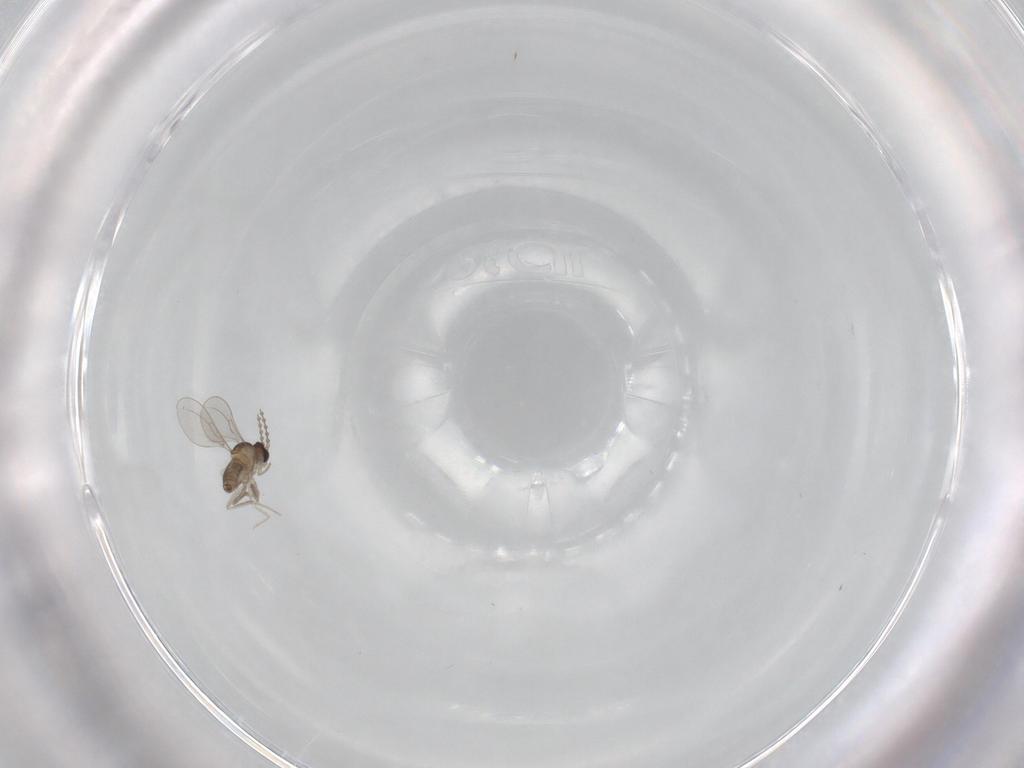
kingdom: Animalia
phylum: Arthropoda
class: Insecta
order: Diptera
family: Cecidomyiidae
